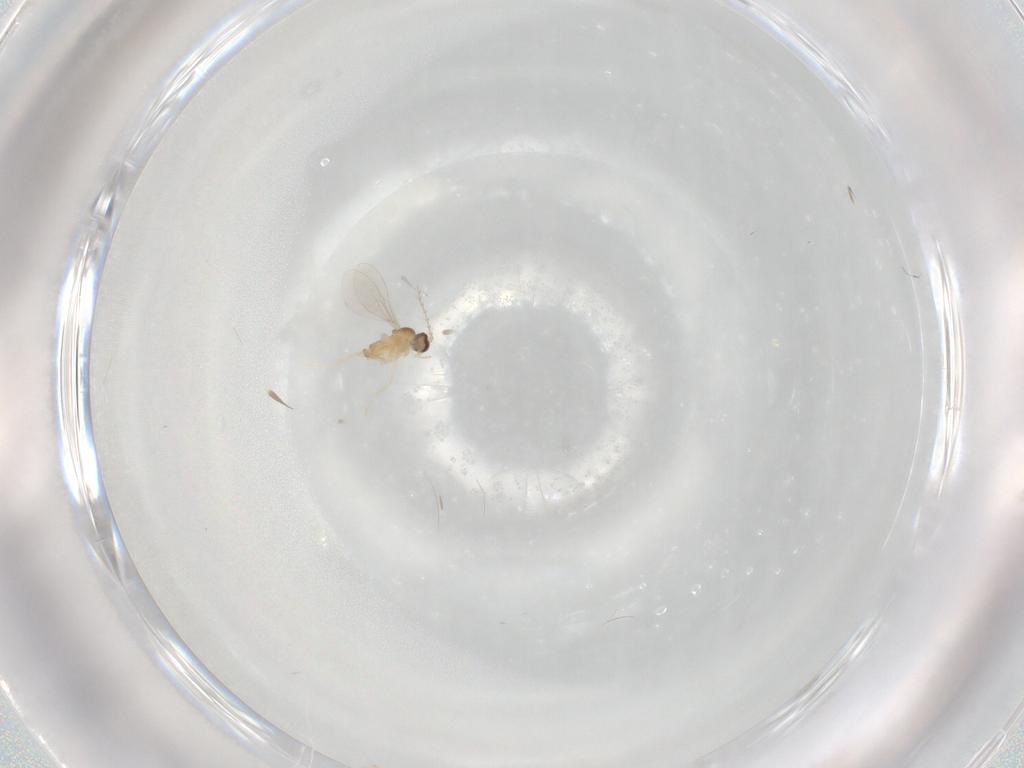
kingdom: Animalia
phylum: Arthropoda
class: Insecta
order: Diptera
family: Cecidomyiidae
